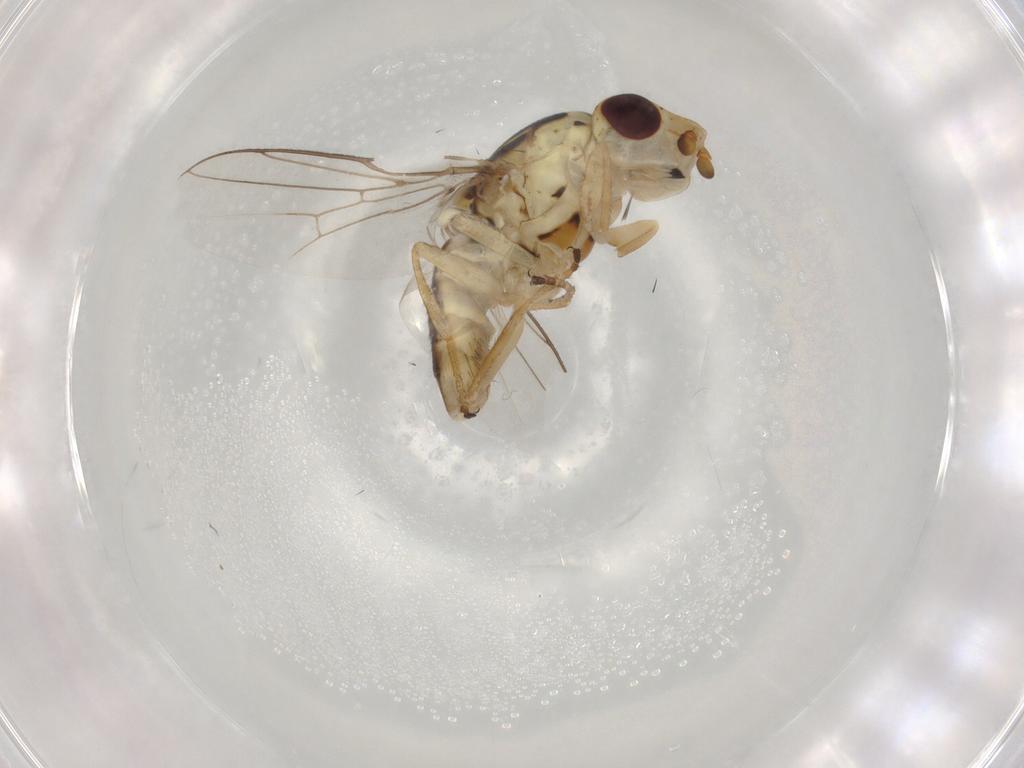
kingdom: Animalia
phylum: Arthropoda
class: Insecta
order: Diptera
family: Chloropidae
